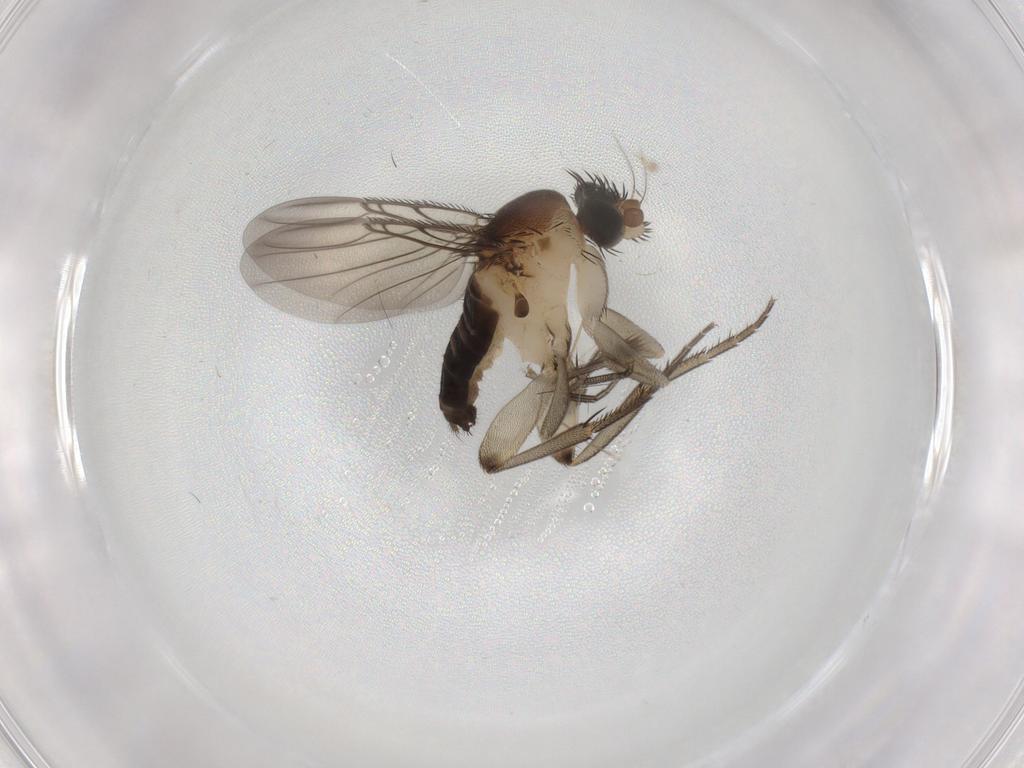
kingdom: Animalia
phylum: Arthropoda
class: Insecta
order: Diptera
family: Phoridae
